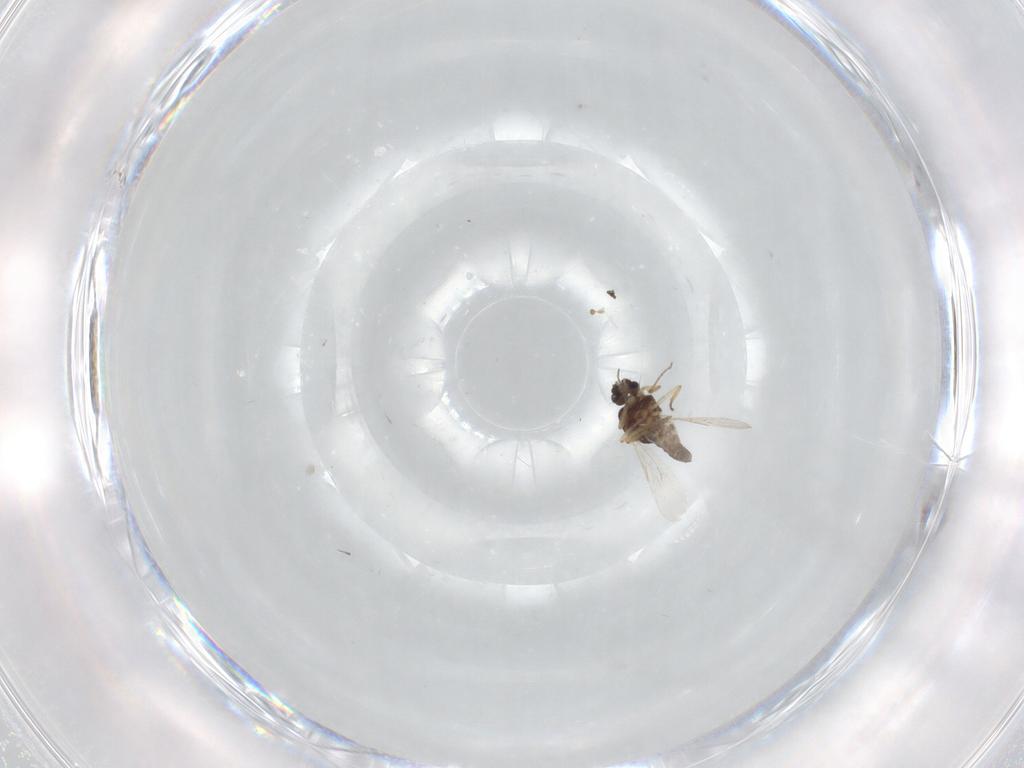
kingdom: Animalia
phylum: Arthropoda
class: Insecta
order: Diptera
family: Ceratopogonidae
